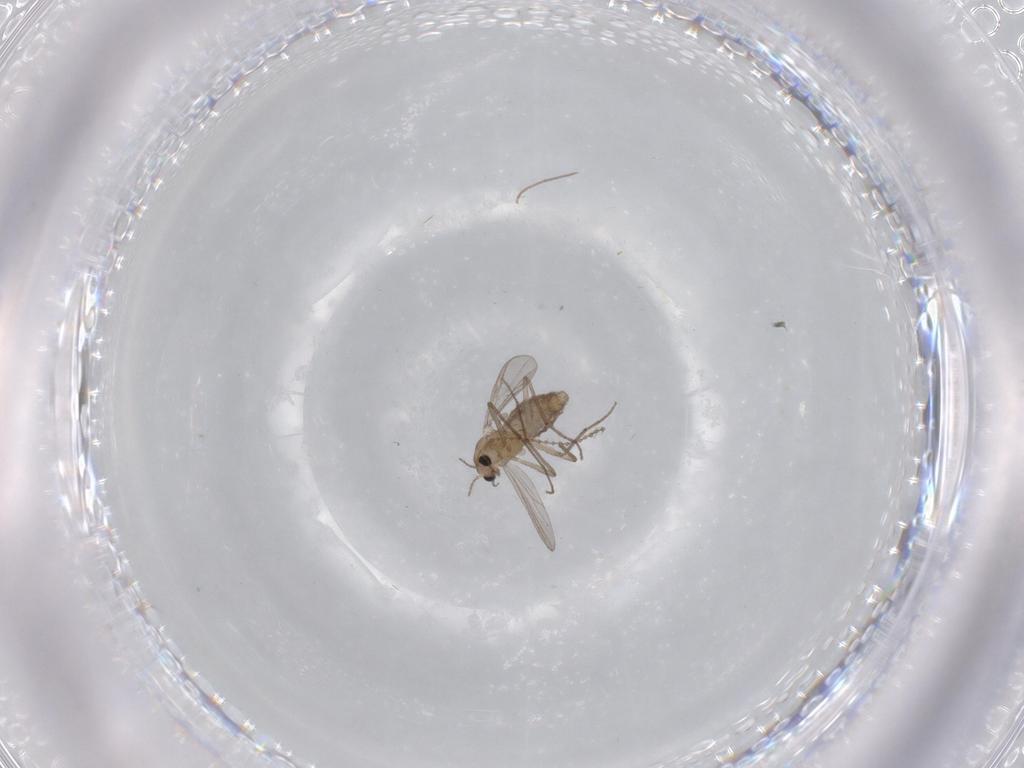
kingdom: Animalia
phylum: Arthropoda
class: Insecta
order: Diptera
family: Chironomidae
